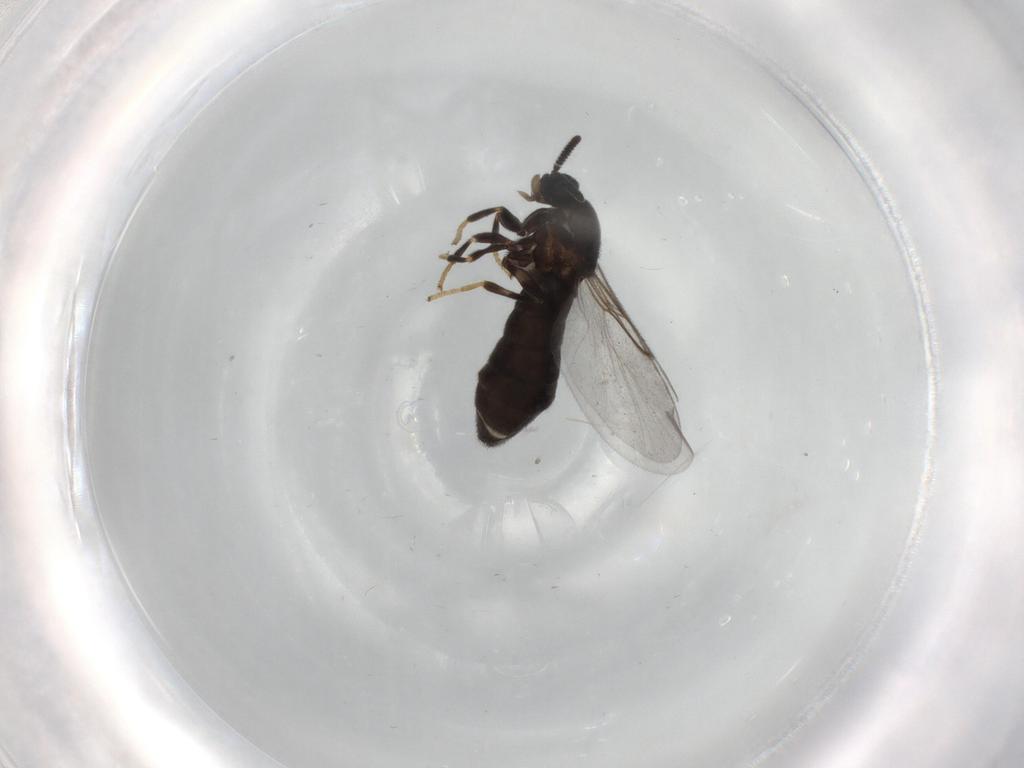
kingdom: Animalia
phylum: Arthropoda
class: Insecta
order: Diptera
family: Scatopsidae
